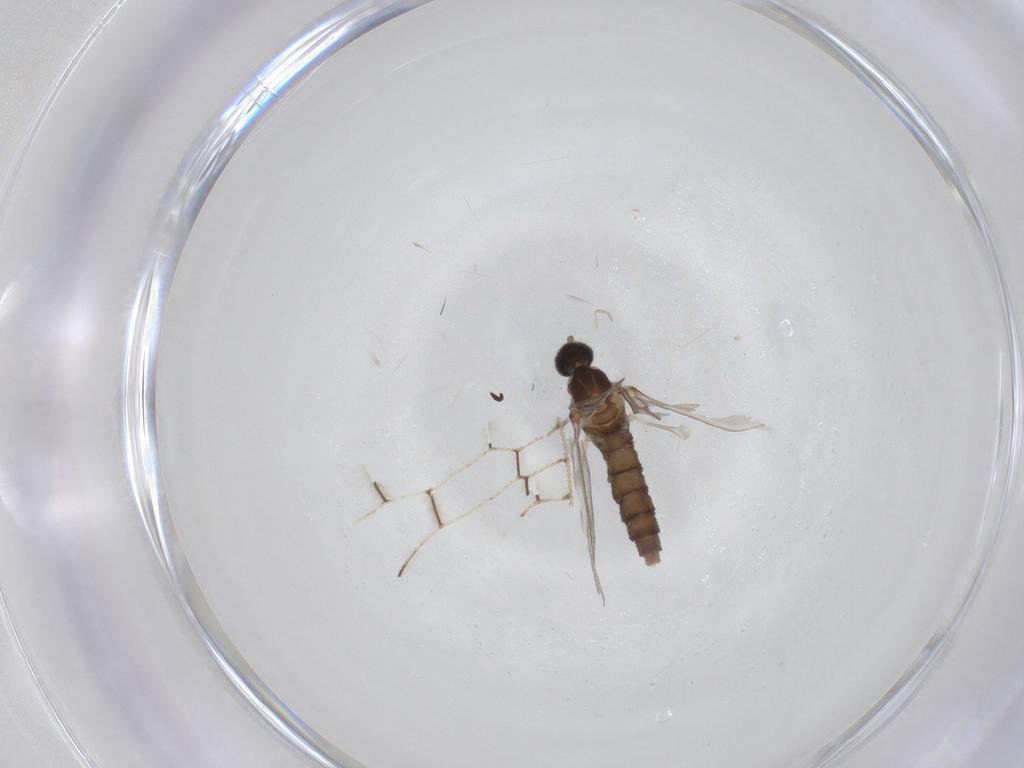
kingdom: Animalia
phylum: Arthropoda
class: Insecta
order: Diptera
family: Cecidomyiidae
